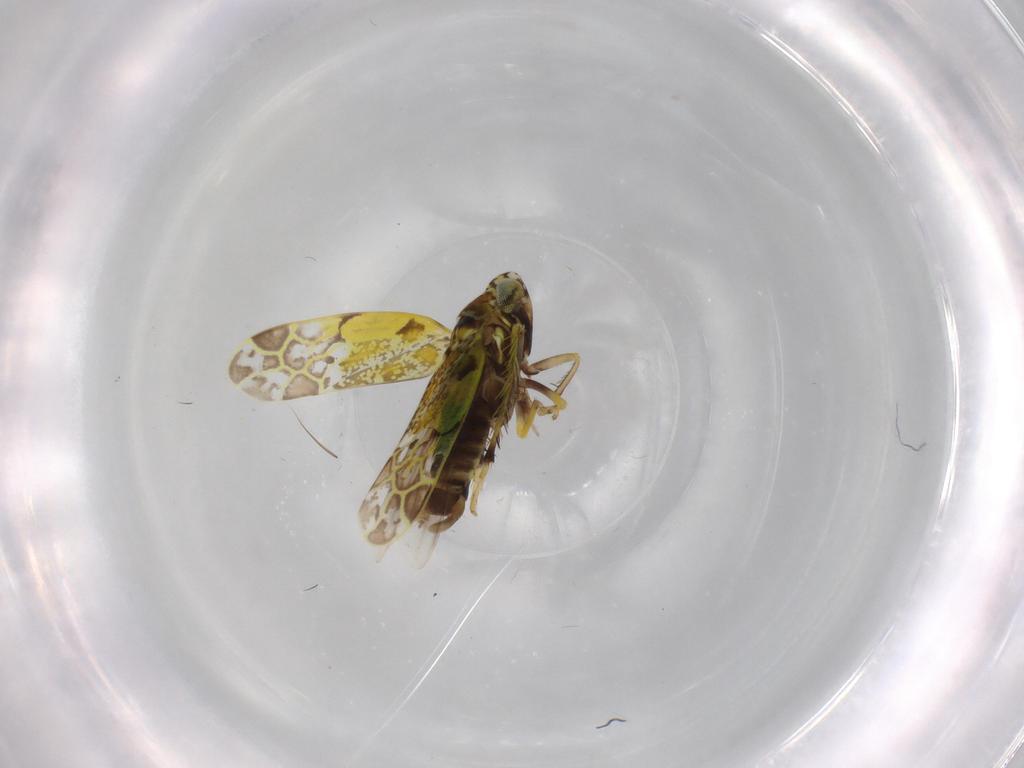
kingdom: Animalia
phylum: Arthropoda
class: Insecta
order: Hemiptera
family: Cicadellidae
